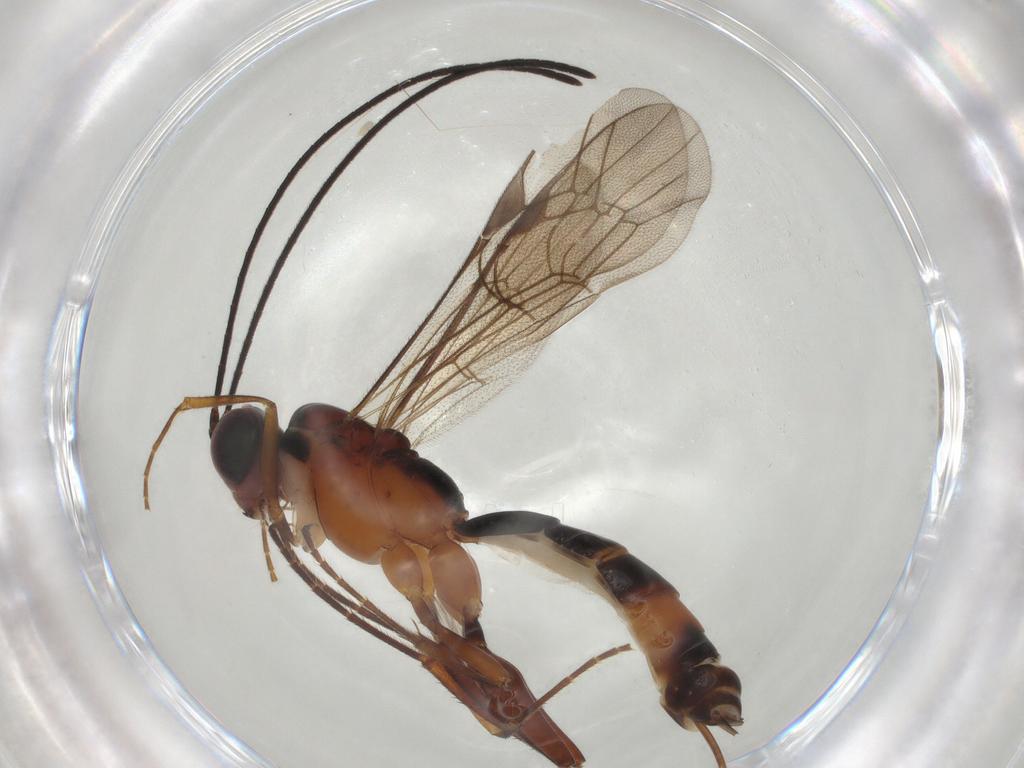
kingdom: Animalia
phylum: Arthropoda
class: Insecta
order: Hymenoptera
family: Ichneumonidae
